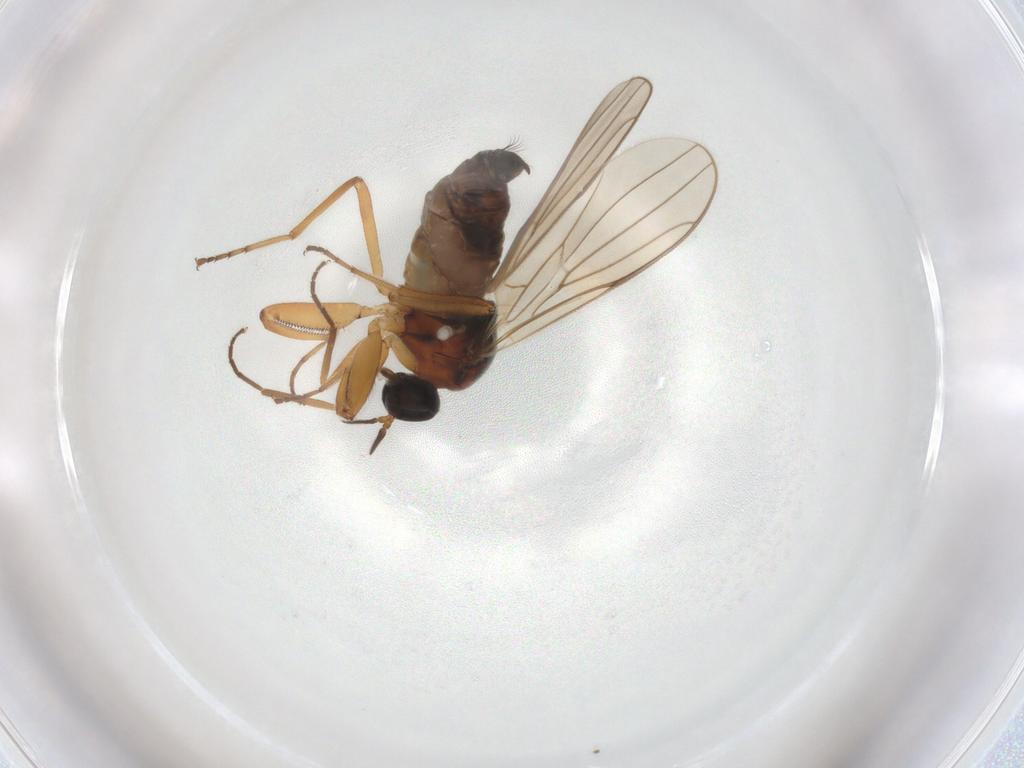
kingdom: Animalia
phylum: Arthropoda
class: Insecta
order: Diptera
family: Hybotidae
